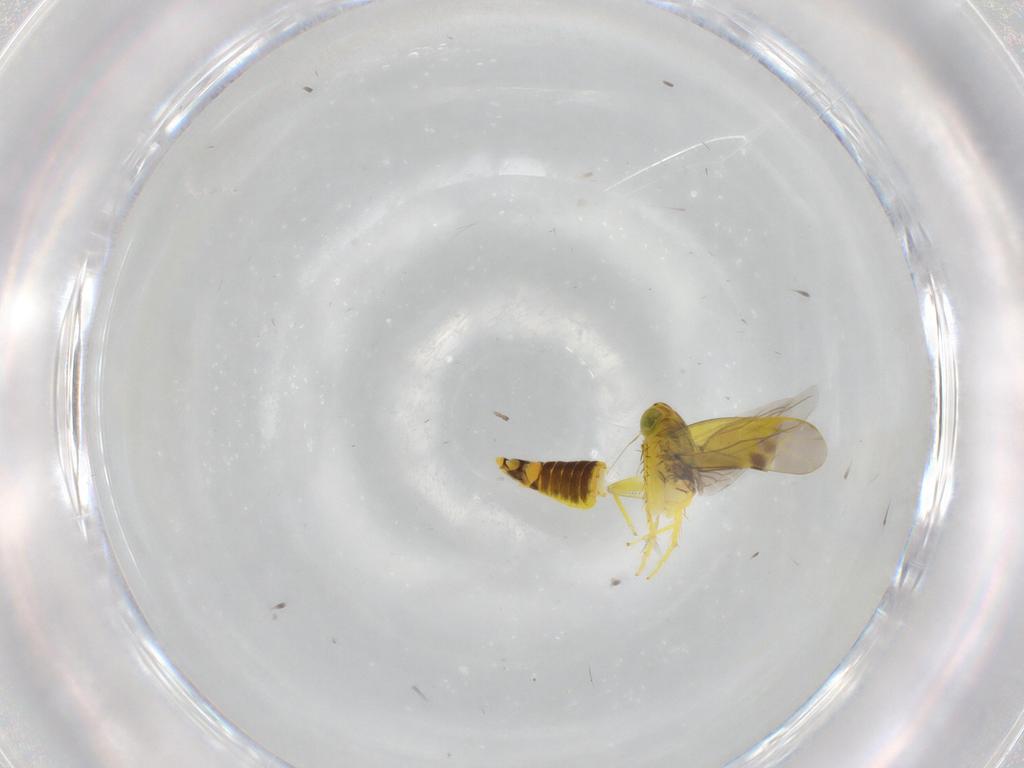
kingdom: Animalia
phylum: Arthropoda
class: Insecta
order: Hemiptera
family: Cicadellidae
